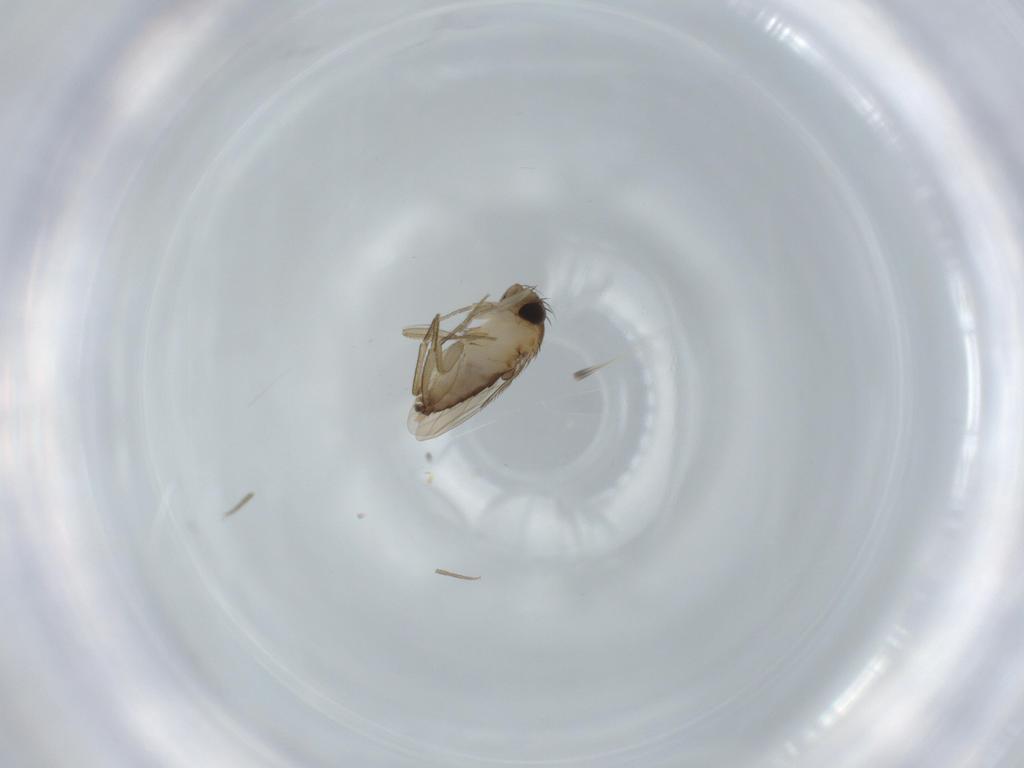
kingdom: Animalia
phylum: Arthropoda
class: Insecta
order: Diptera
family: Phoridae
